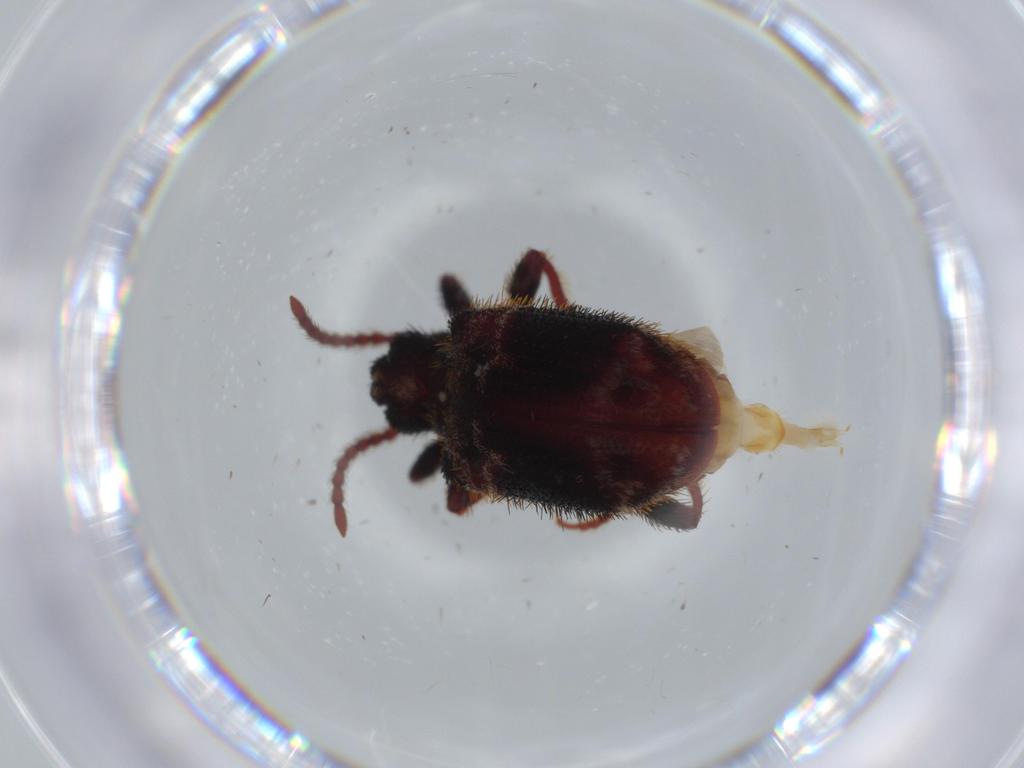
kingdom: Animalia
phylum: Arthropoda
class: Insecta
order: Coleoptera
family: Ptinidae
